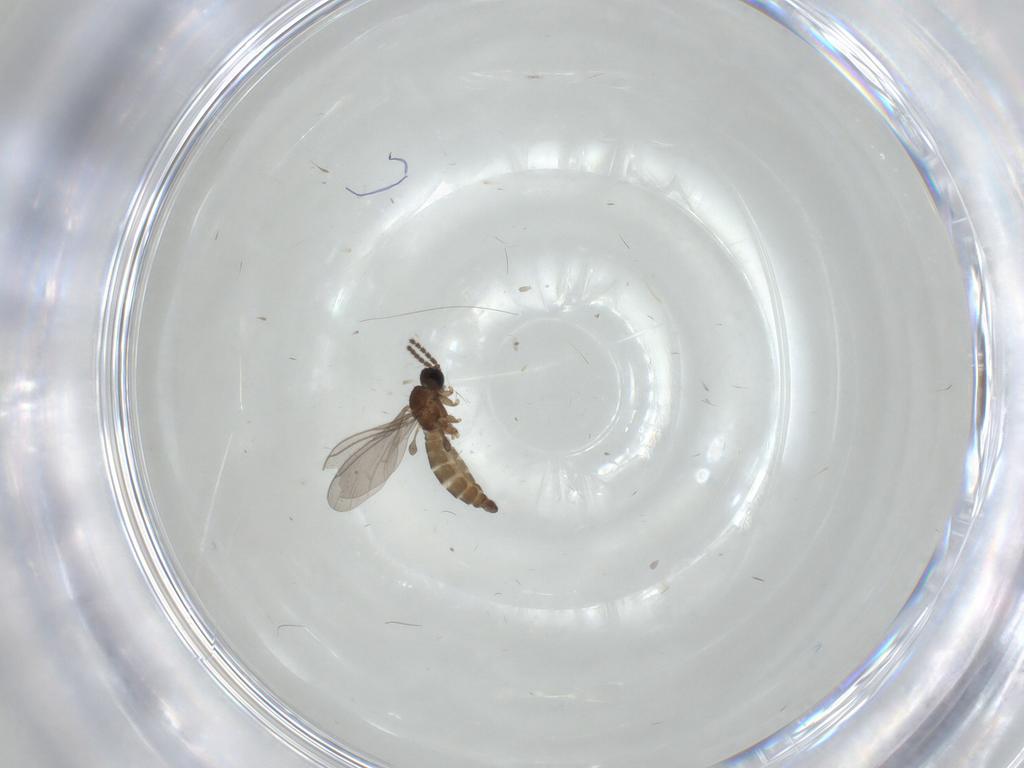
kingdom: Animalia
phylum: Arthropoda
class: Insecta
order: Diptera
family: Sciaridae
